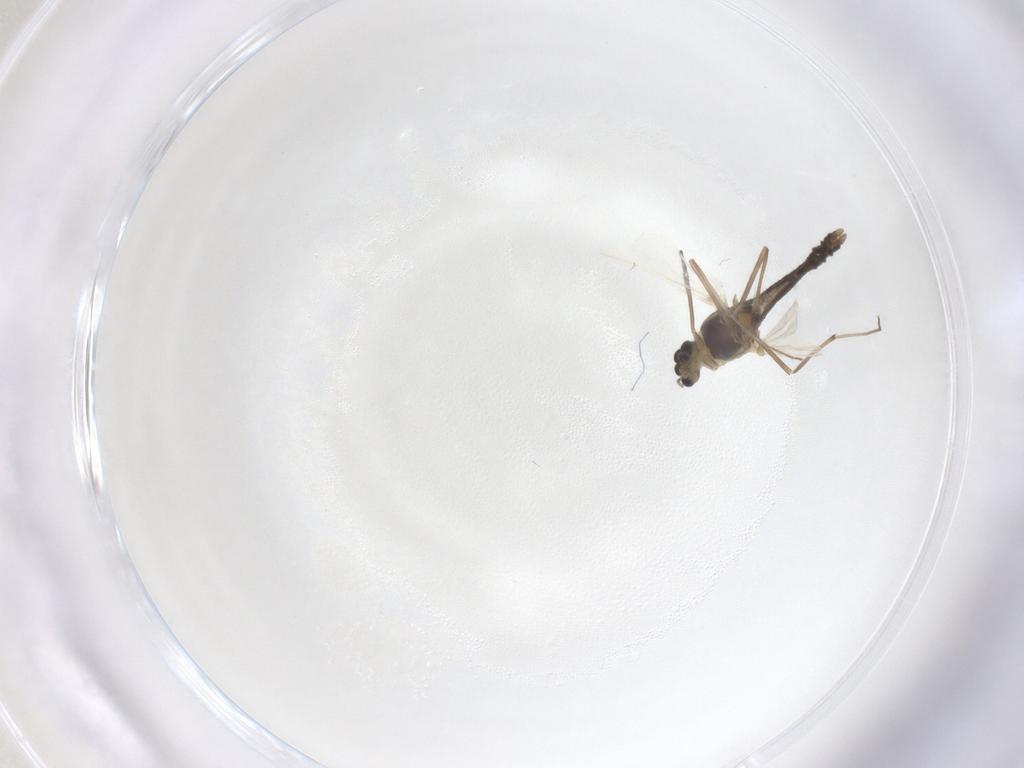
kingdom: Animalia
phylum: Arthropoda
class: Insecta
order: Diptera
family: Chironomidae
